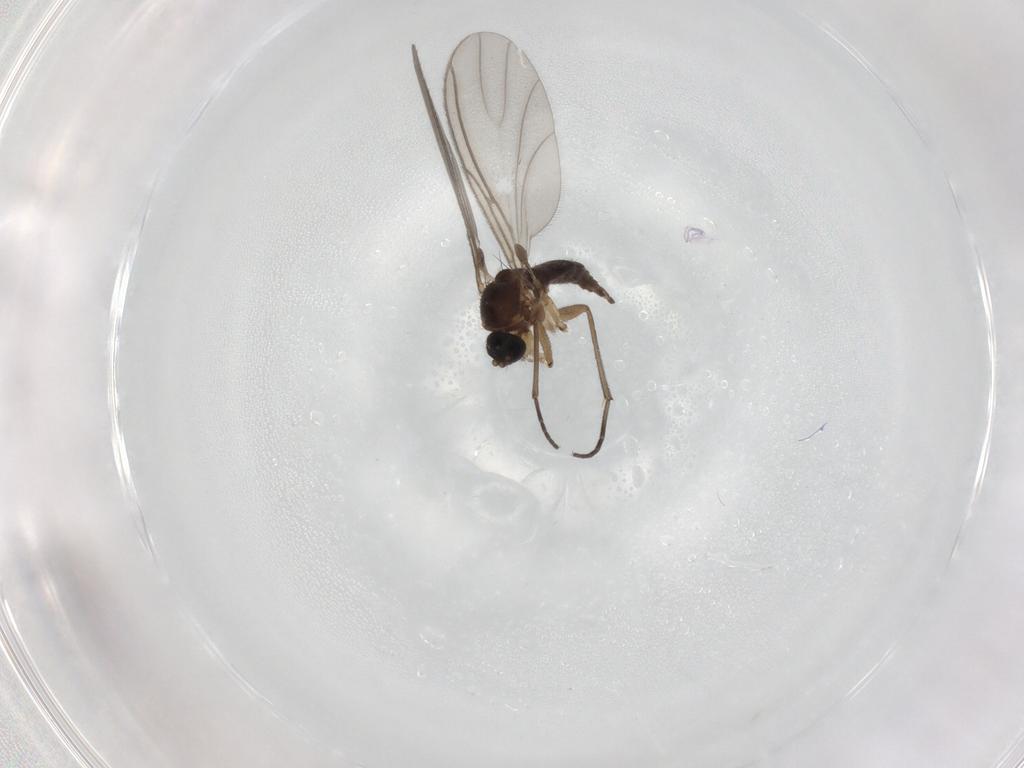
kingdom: Animalia
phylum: Arthropoda
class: Insecta
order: Diptera
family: Sciaridae
